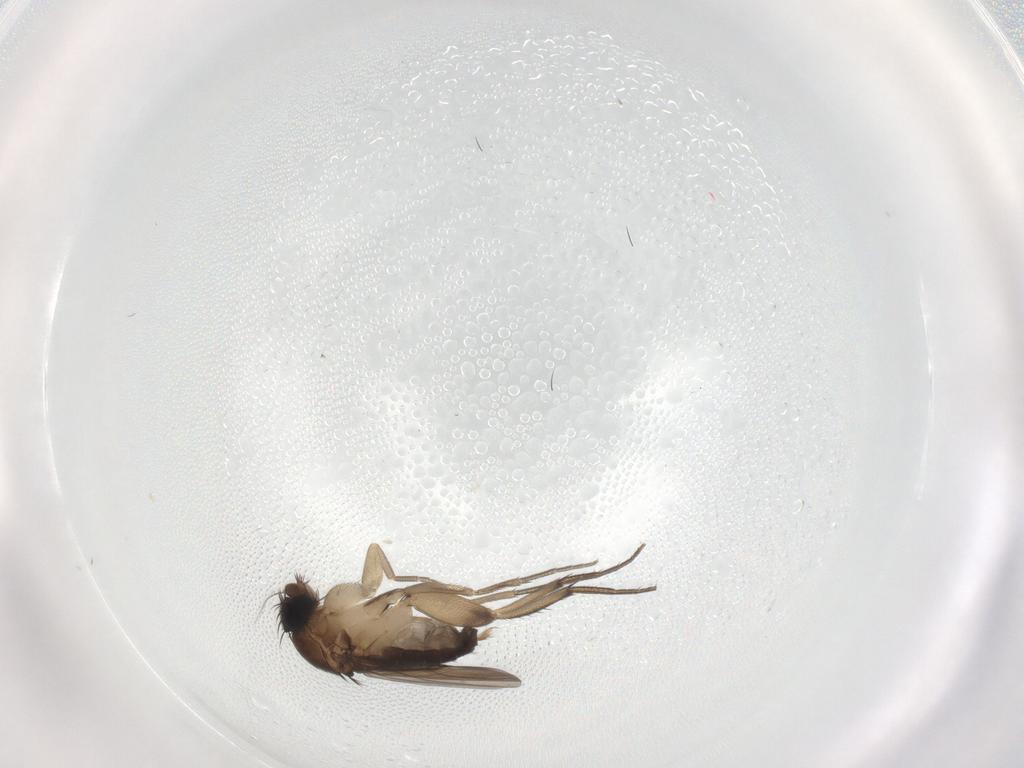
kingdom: Animalia
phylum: Arthropoda
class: Insecta
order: Diptera
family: Phoridae
